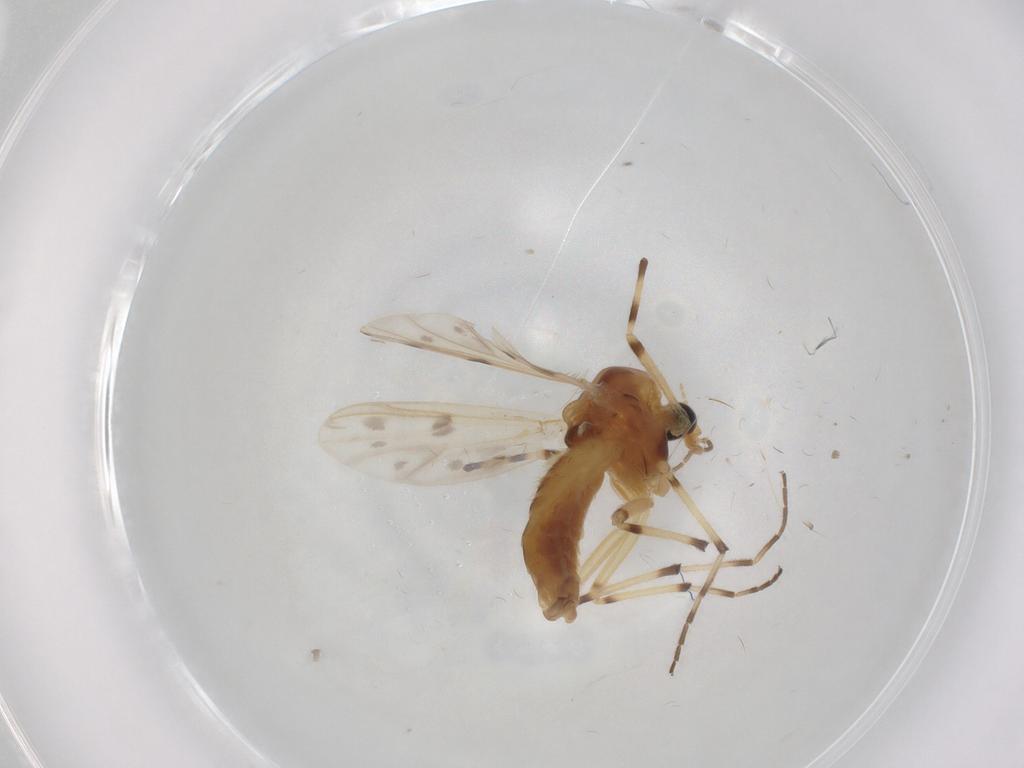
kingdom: Animalia
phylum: Arthropoda
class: Insecta
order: Diptera
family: Chironomidae
